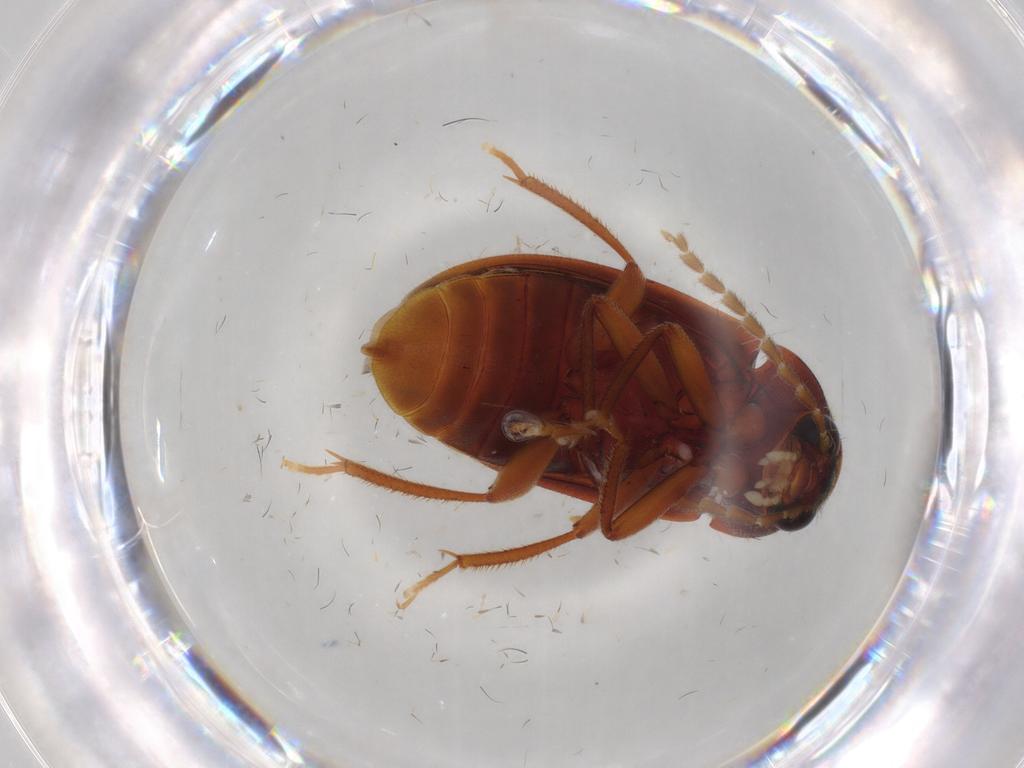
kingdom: Animalia
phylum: Arthropoda
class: Insecta
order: Coleoptera
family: Ptilodactylidae
